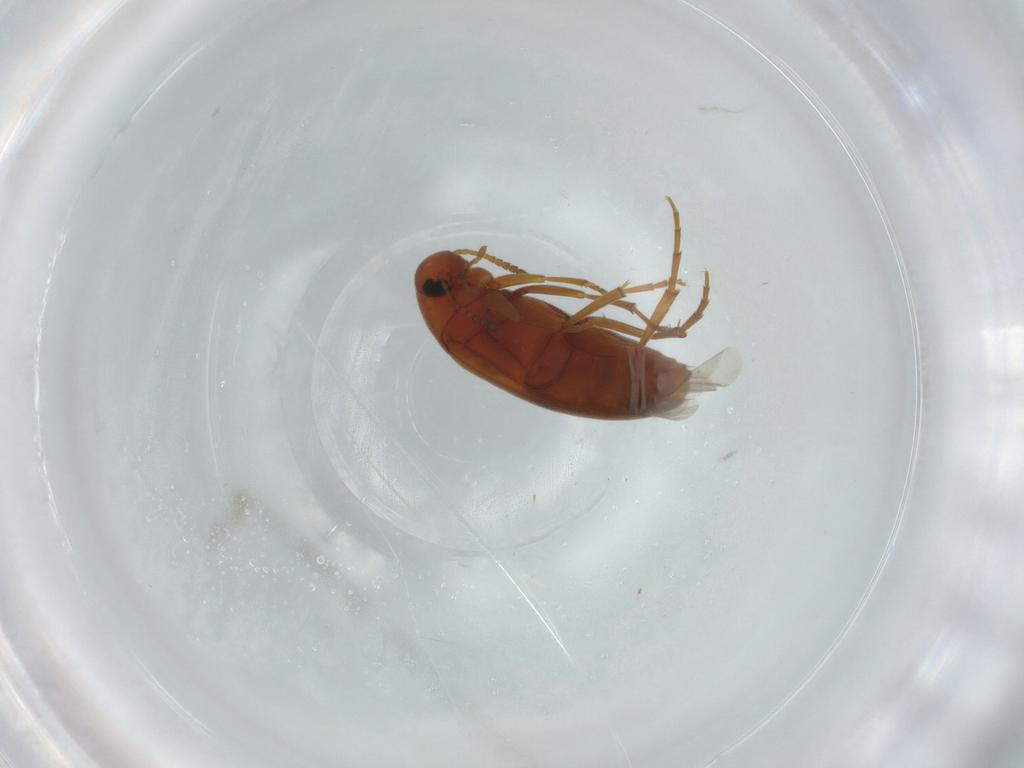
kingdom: Animalia
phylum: Arthropoda
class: Insecta
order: Coleoptera
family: Scraptiidae
